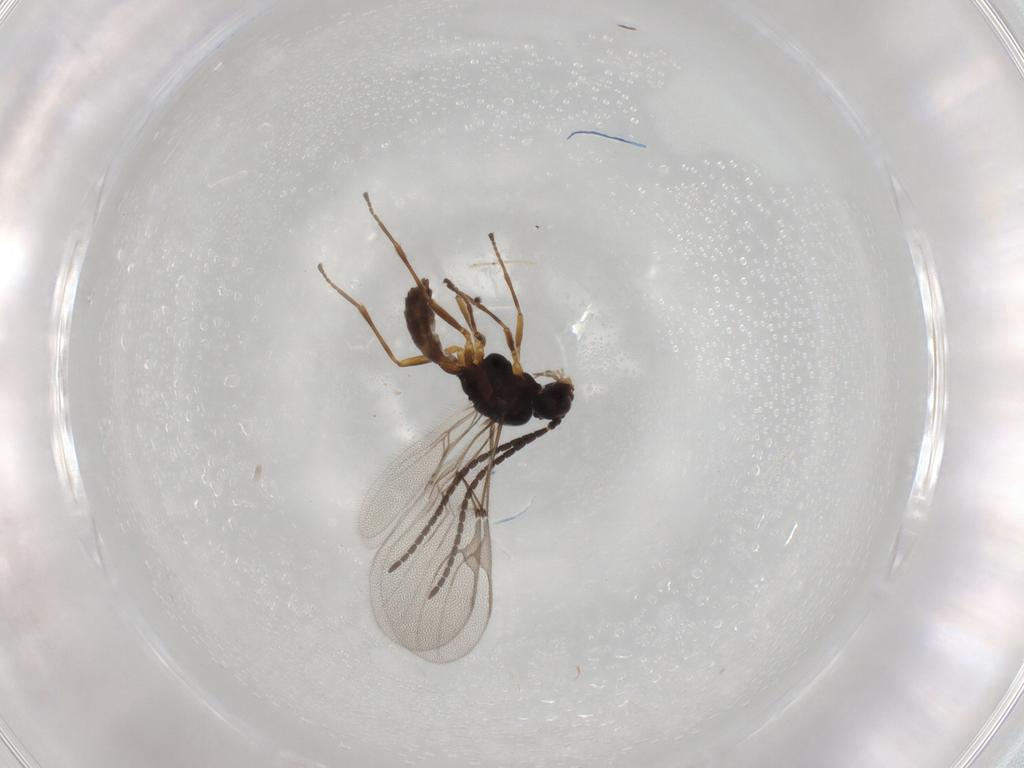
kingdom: Animalia
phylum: Arthropoda
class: Insecta
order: Hymenoptera
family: Braconidae
